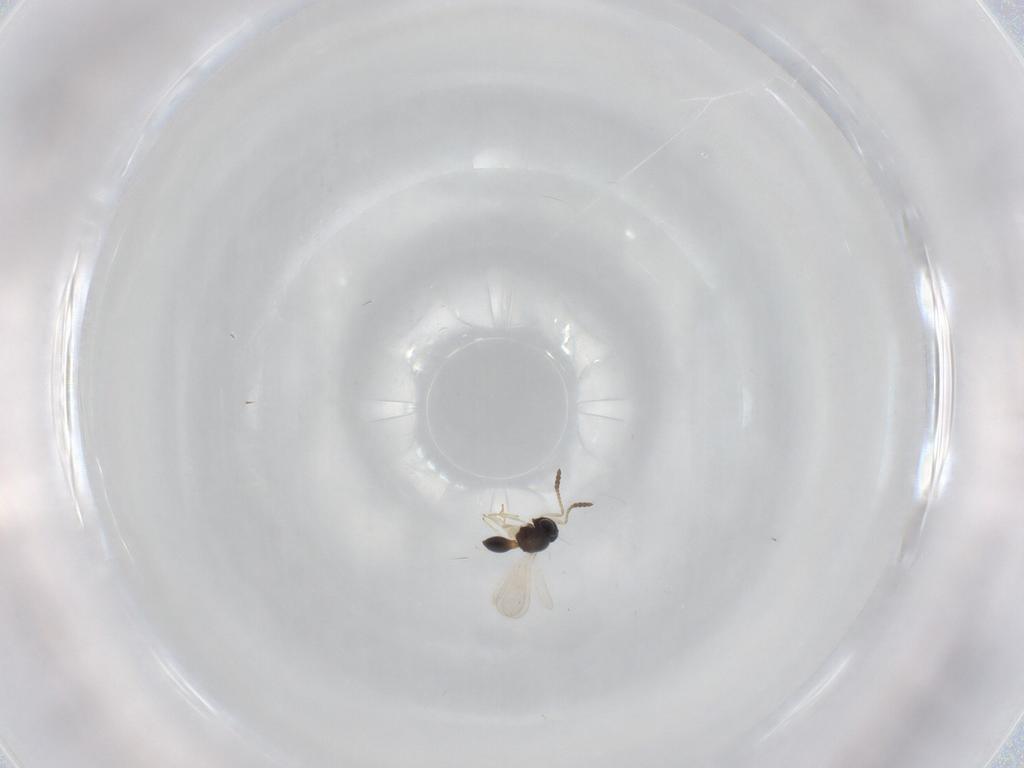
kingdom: Animalia
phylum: Arthropoda
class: Insecta
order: Hymenoptera
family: Scelionidae
